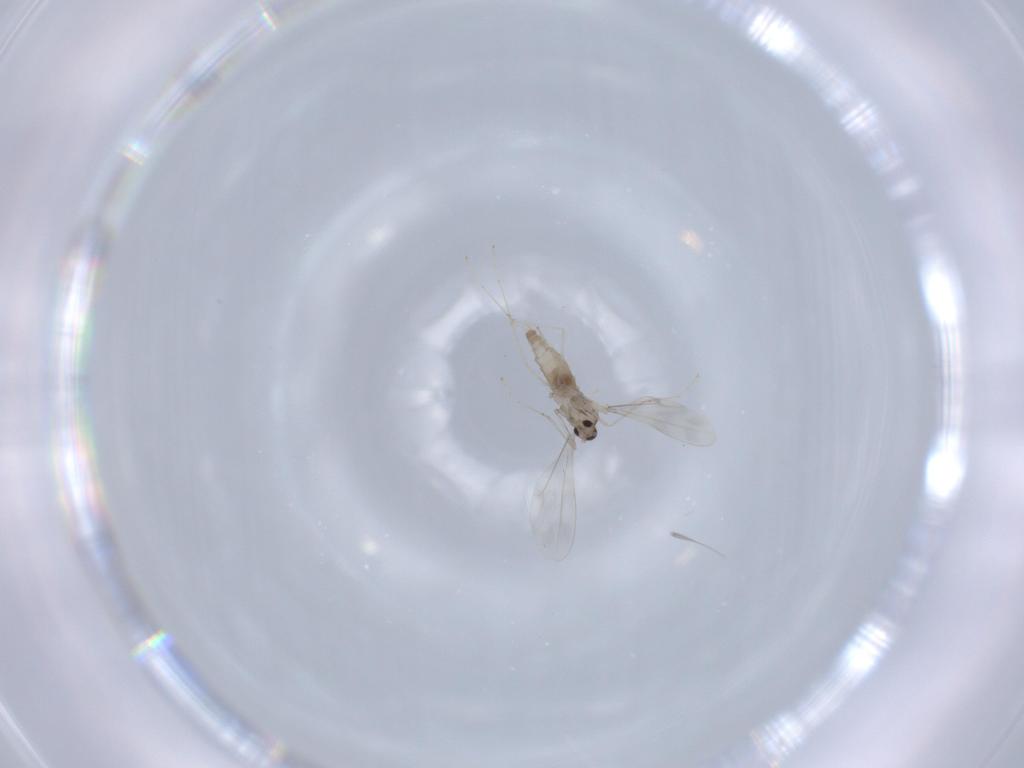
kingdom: Animalia
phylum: Arthropoda
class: Insecta
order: Diptera
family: Cecidomyiidae
